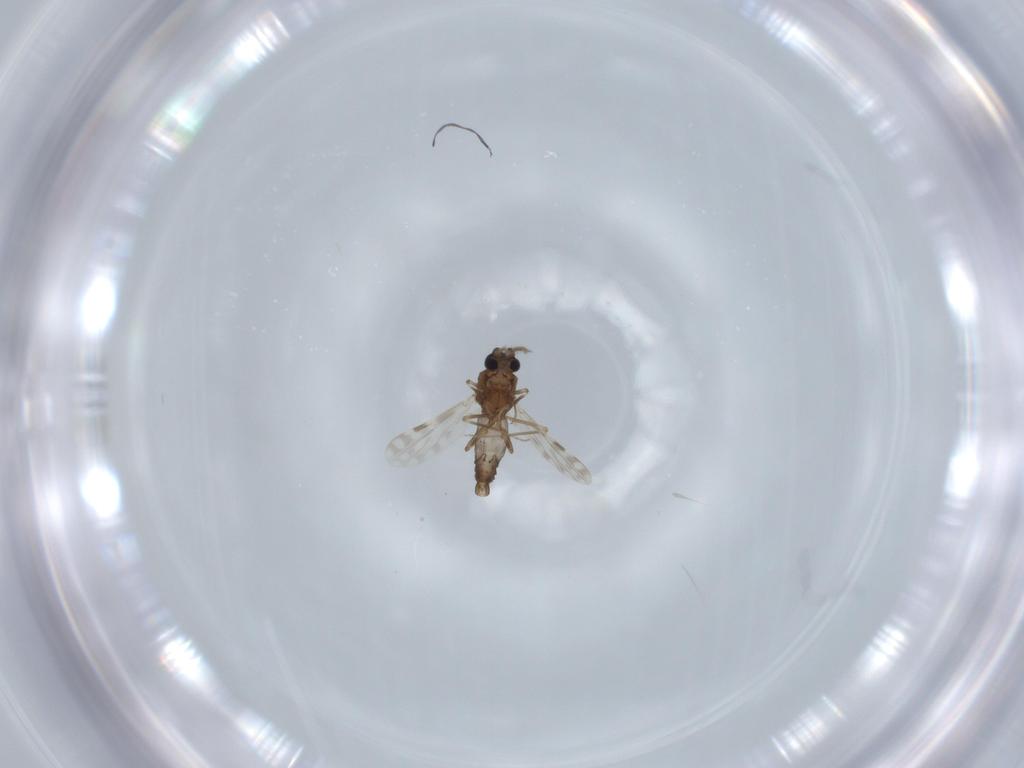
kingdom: Animalia
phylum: Arthropoda
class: Insecta
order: Diptera
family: Ceratopogonidae
